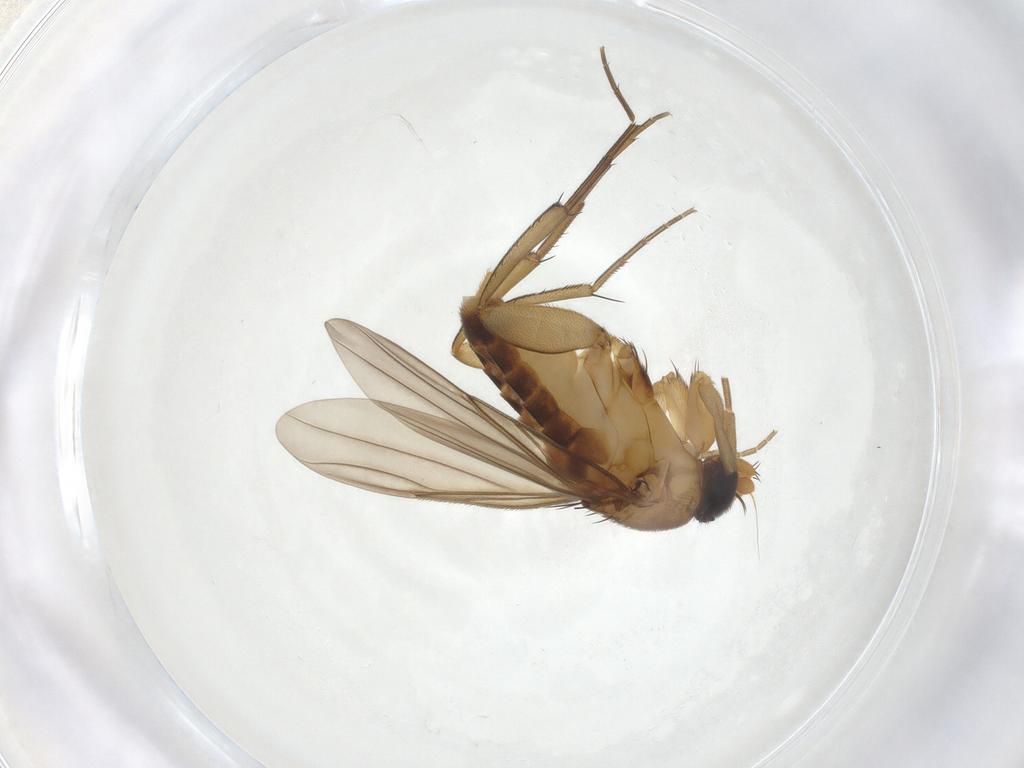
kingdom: Animalia
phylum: Arthropoda
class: Insecta
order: Diptera
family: Phoridae
